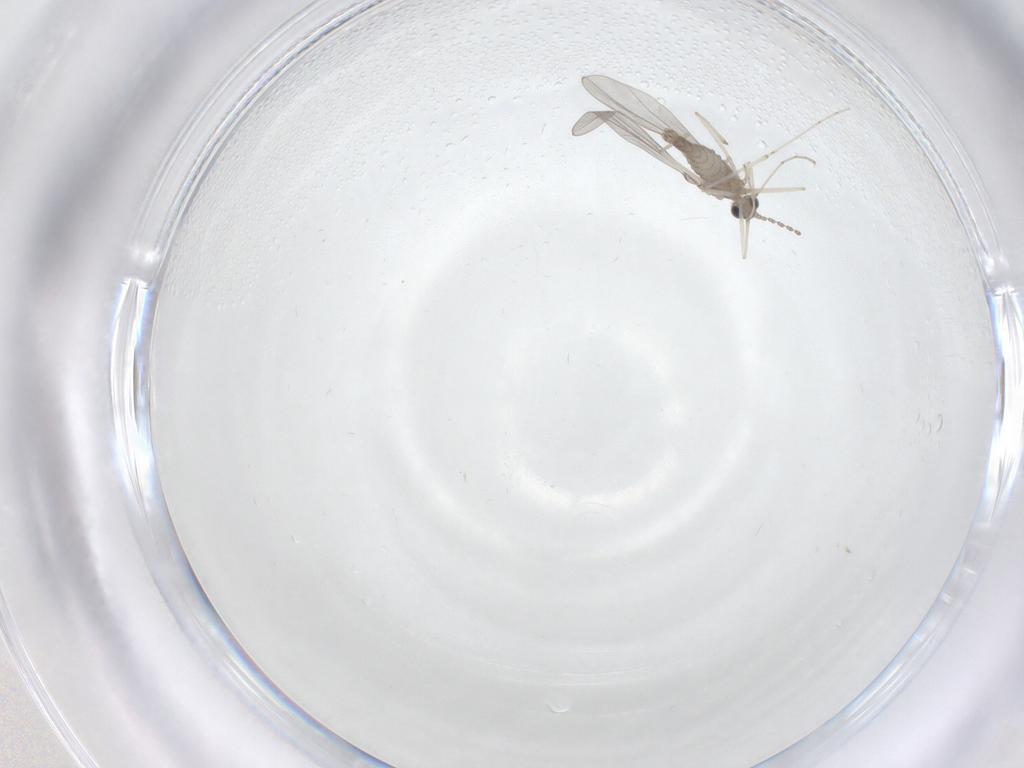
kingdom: Animalia
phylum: Arthropoda
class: Insecta
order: Diptera
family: Cecidomyiidae
